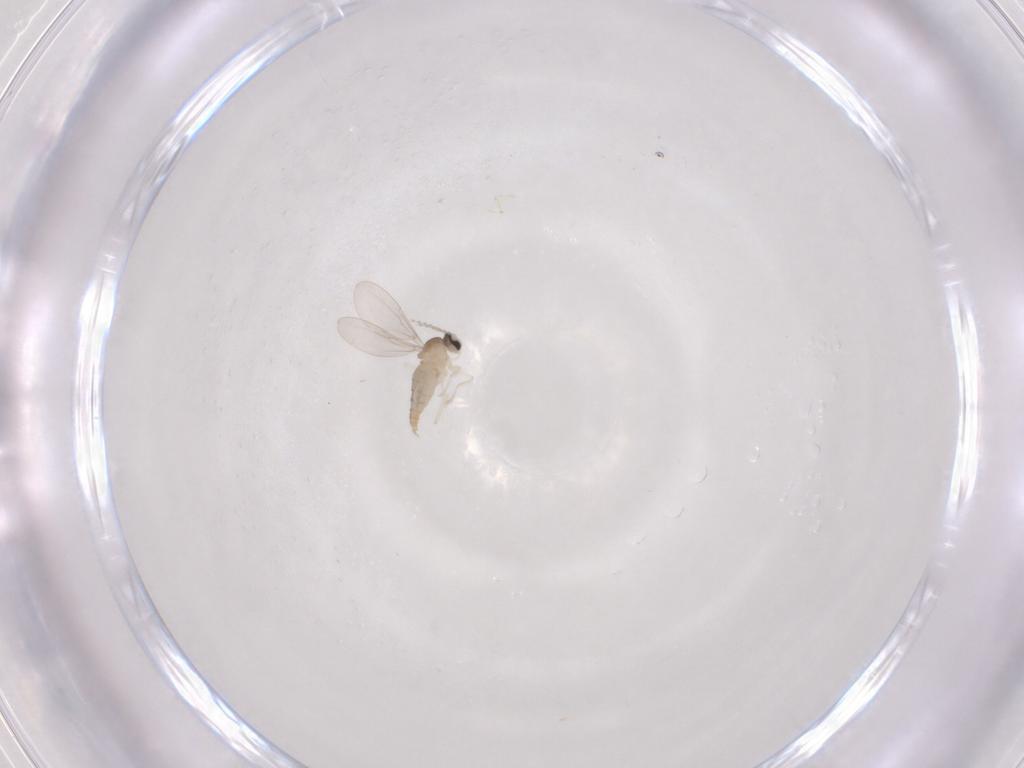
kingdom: Animalia
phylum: Arthropoda
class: Insecta
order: Diptera
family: Cecidomyiidae
